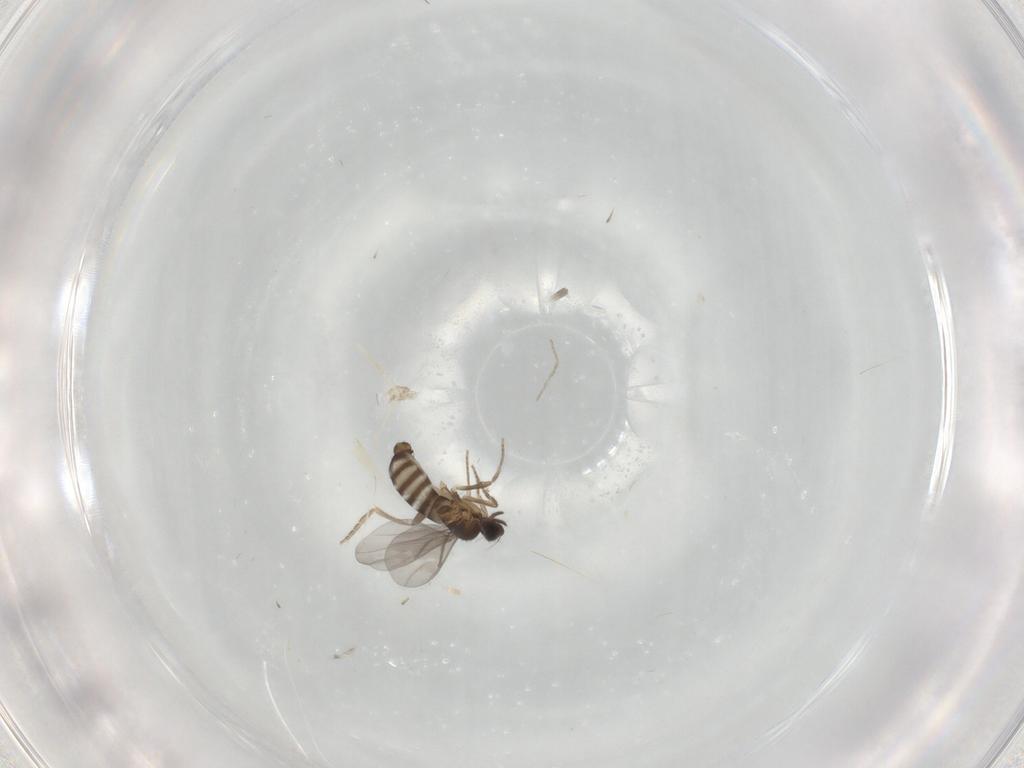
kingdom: Animalia
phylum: Arthropoda
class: Insecta
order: Diptera
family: Cecidomyiidae
